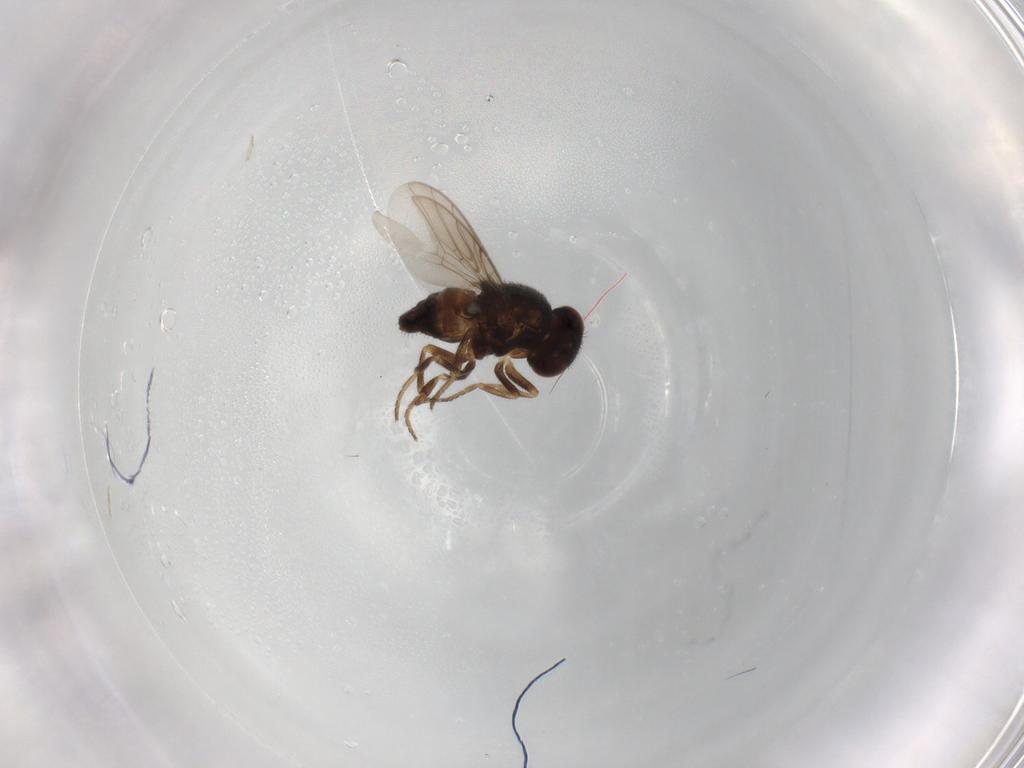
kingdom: Animalia
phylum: Arthropoda
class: Insecta
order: Diptera
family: Chloropidae
